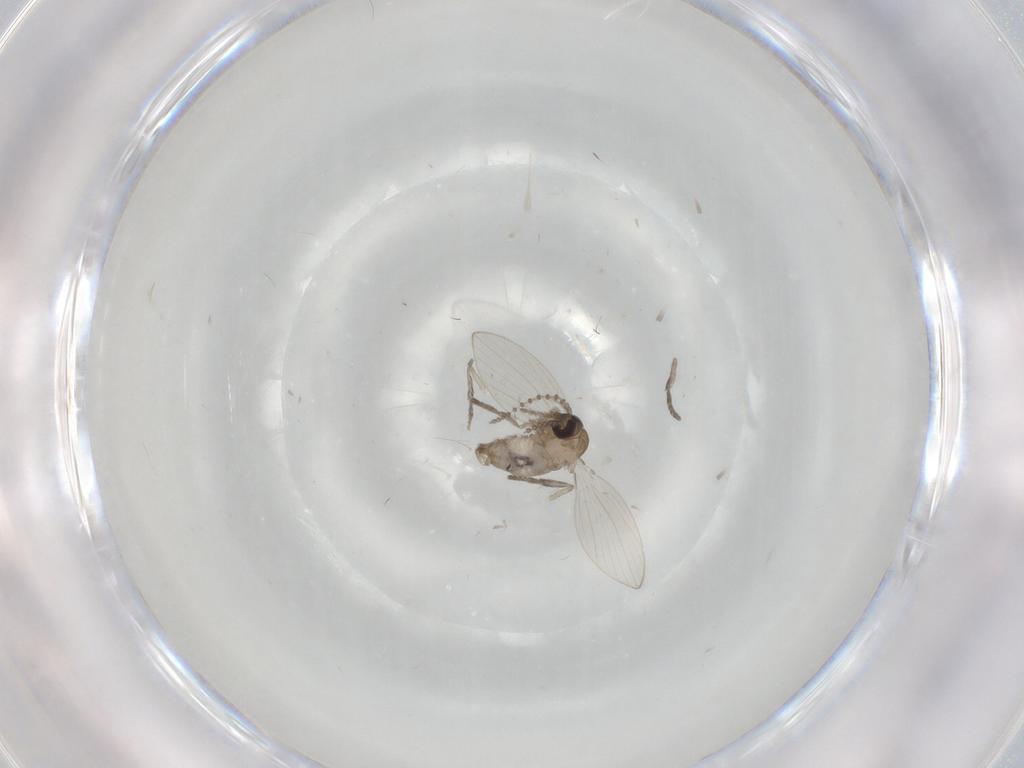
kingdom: Animalia
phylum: Arthropoda
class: Insecta
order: Diptera
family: Psychodidae
